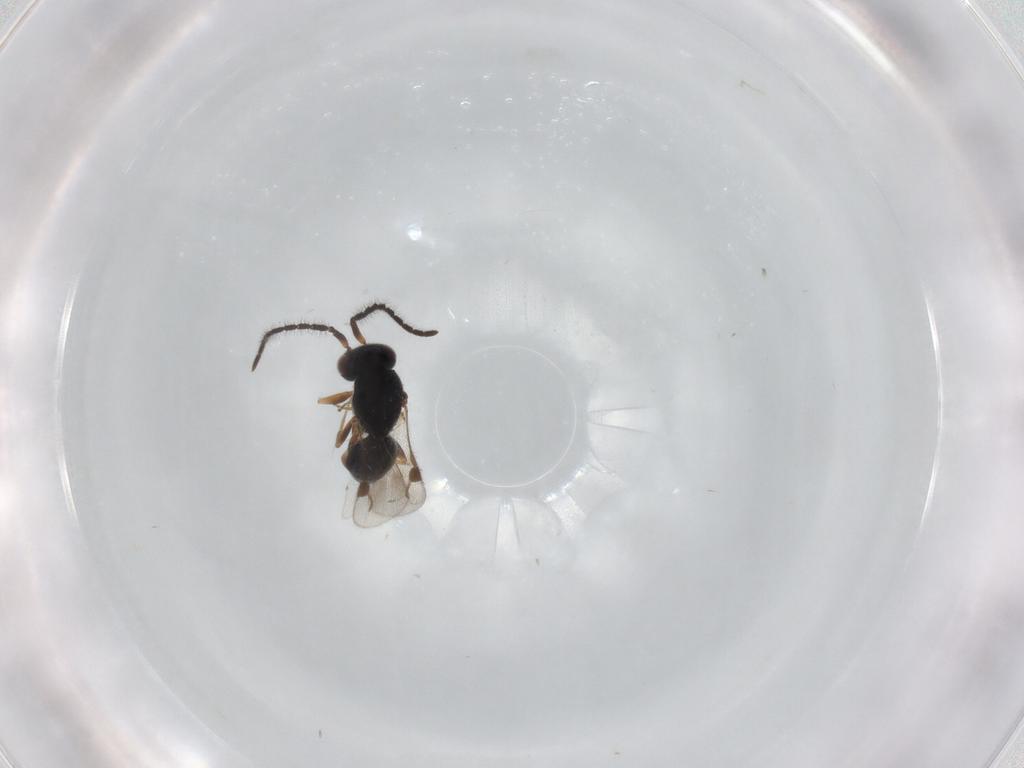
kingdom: Animalia
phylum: Arthropoda
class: Insecta
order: Hymenoptera
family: Megaspilidae
